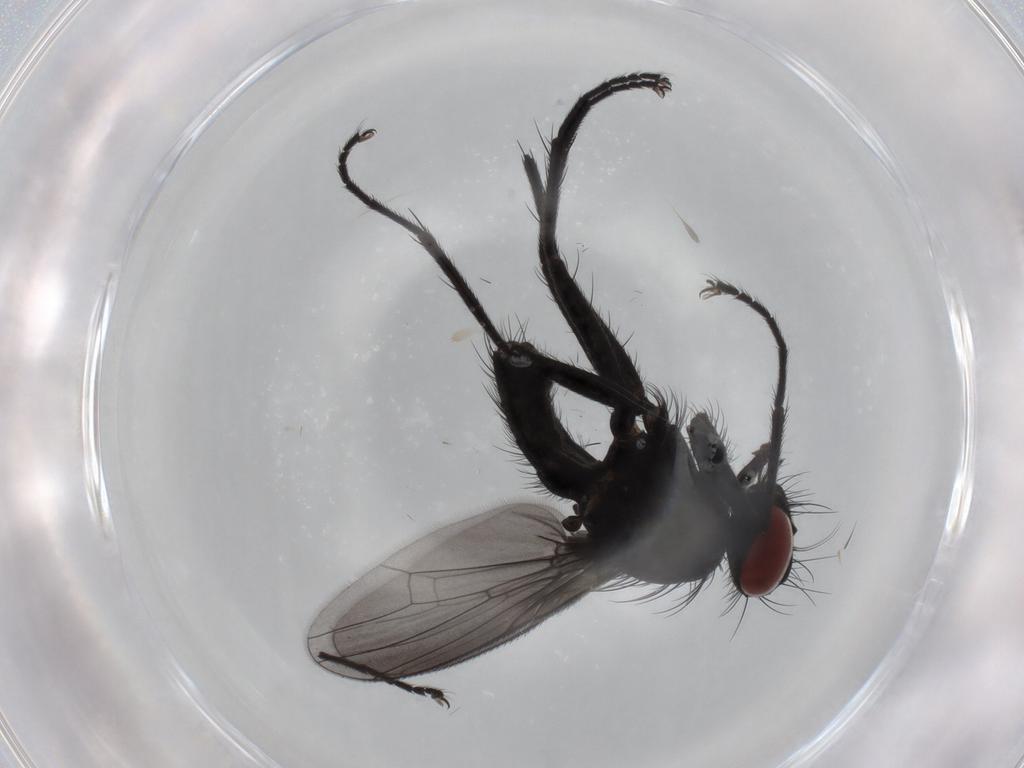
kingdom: Animalia
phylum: Arthropoda
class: Insecta
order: Diptera
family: Muscidae
